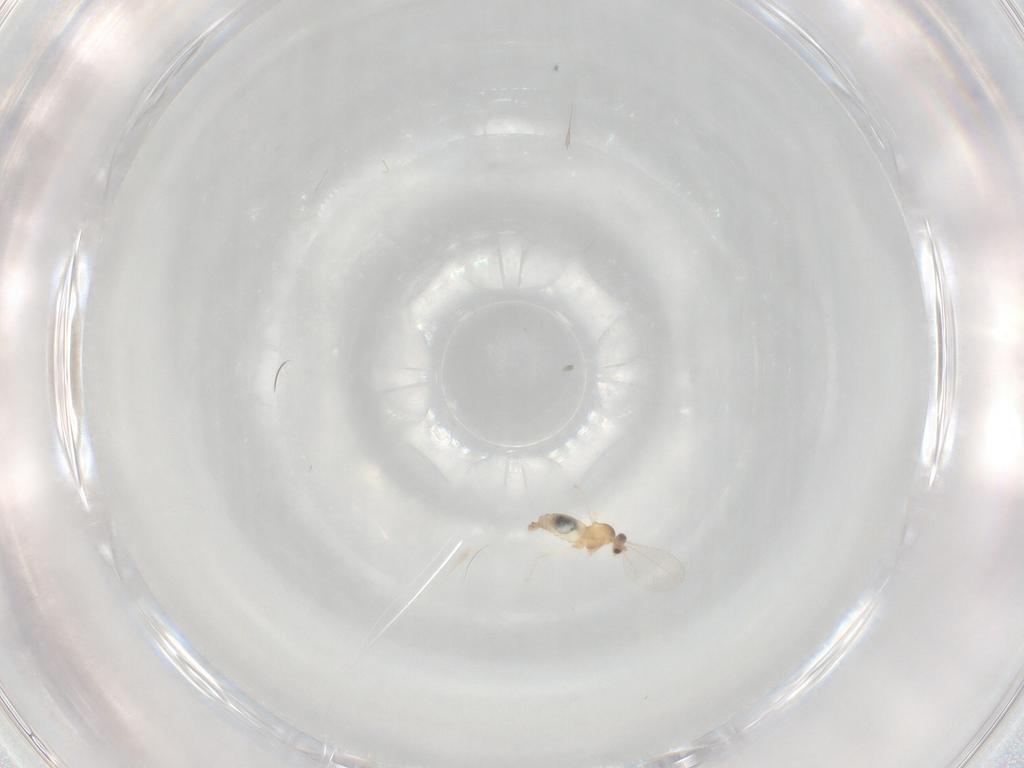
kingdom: Animalia
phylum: Arthropoda
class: Insecta
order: Diptera
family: Cecidomyiidae
